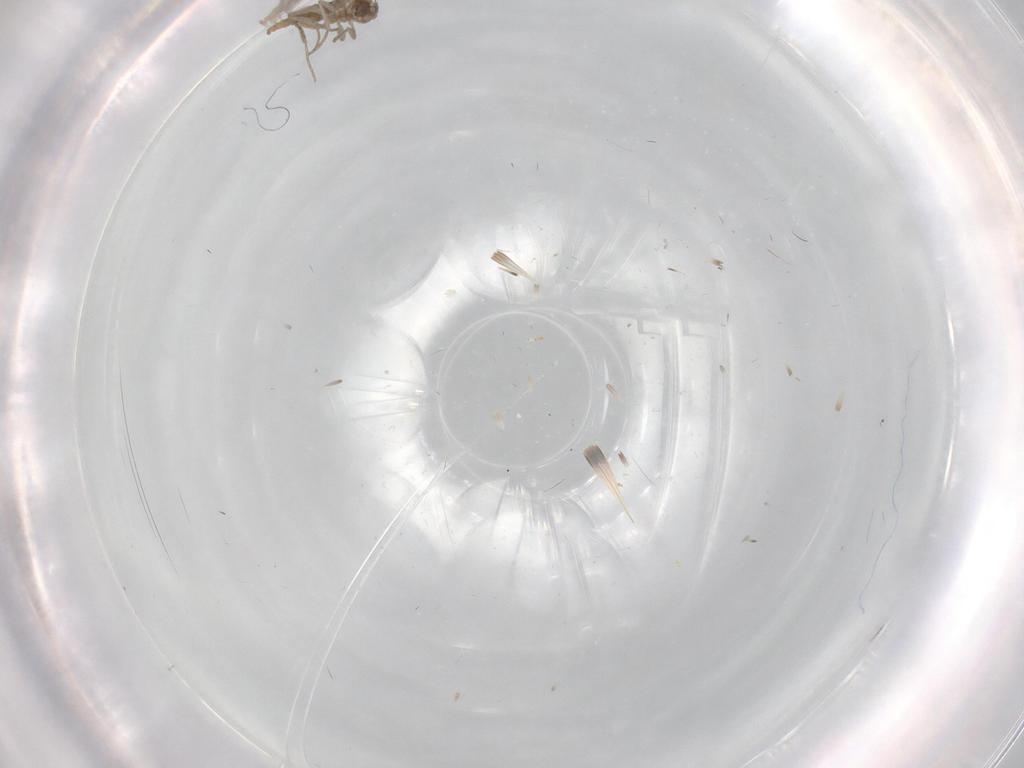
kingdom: Animalia
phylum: Arthropoda
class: Insecta
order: Diptera
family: Cecidomyiidae
